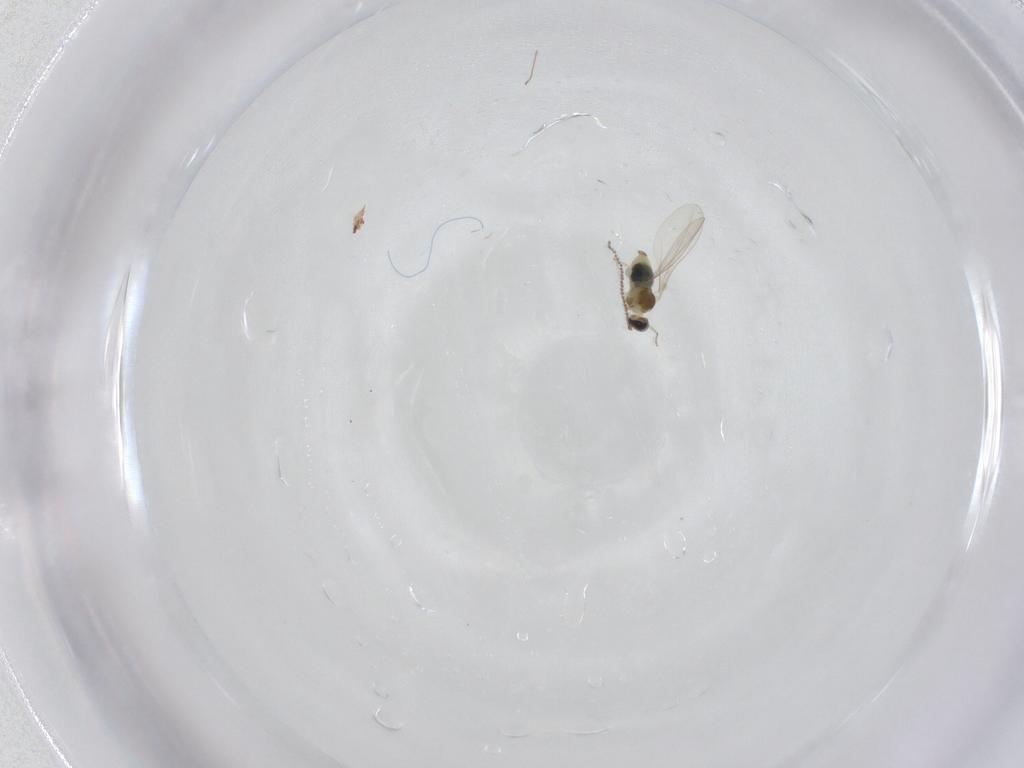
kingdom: Animalia
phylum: Arthropoda
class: Insecta
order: Diptera
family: Cecidomyiidae
